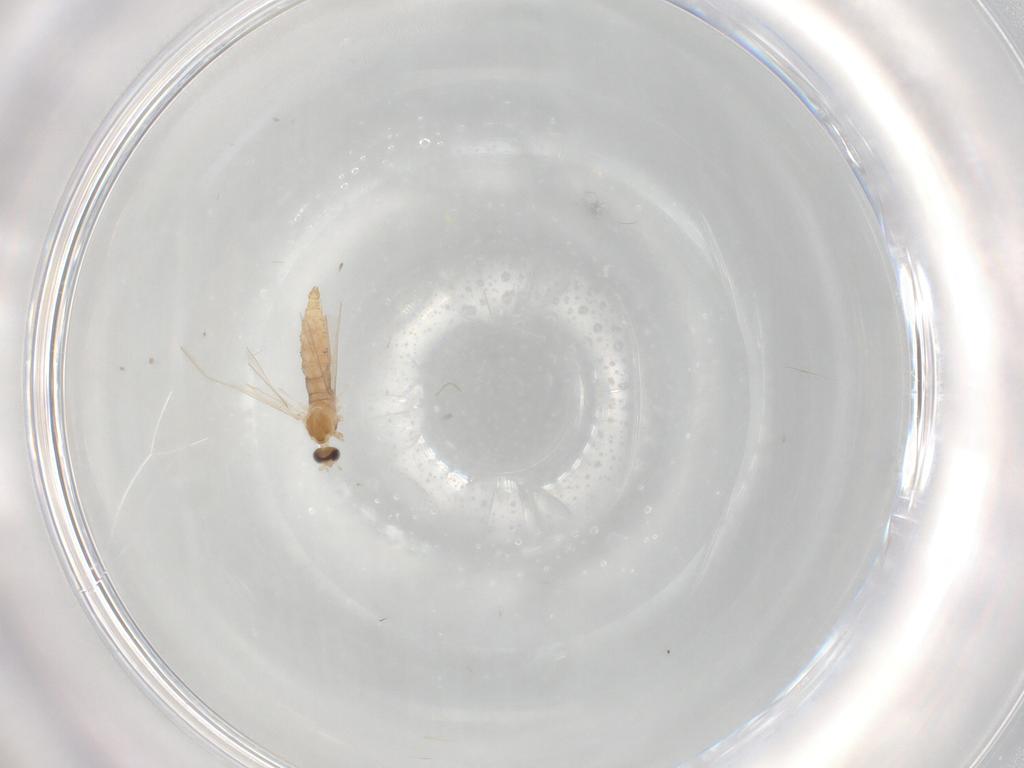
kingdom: Animalia
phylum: Arthropoda
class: Insecta
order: Diptera
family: Cecidomyiidae
